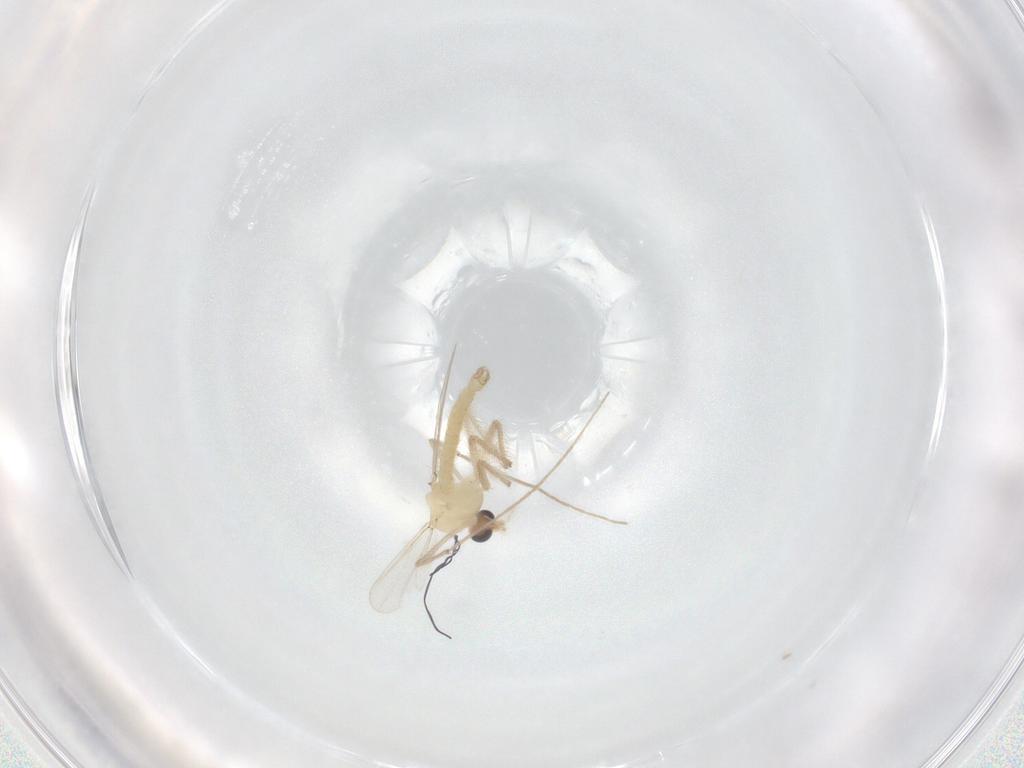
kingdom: Animalia
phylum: Arthropoda
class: Insecta
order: Diptera
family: Chironomidae
